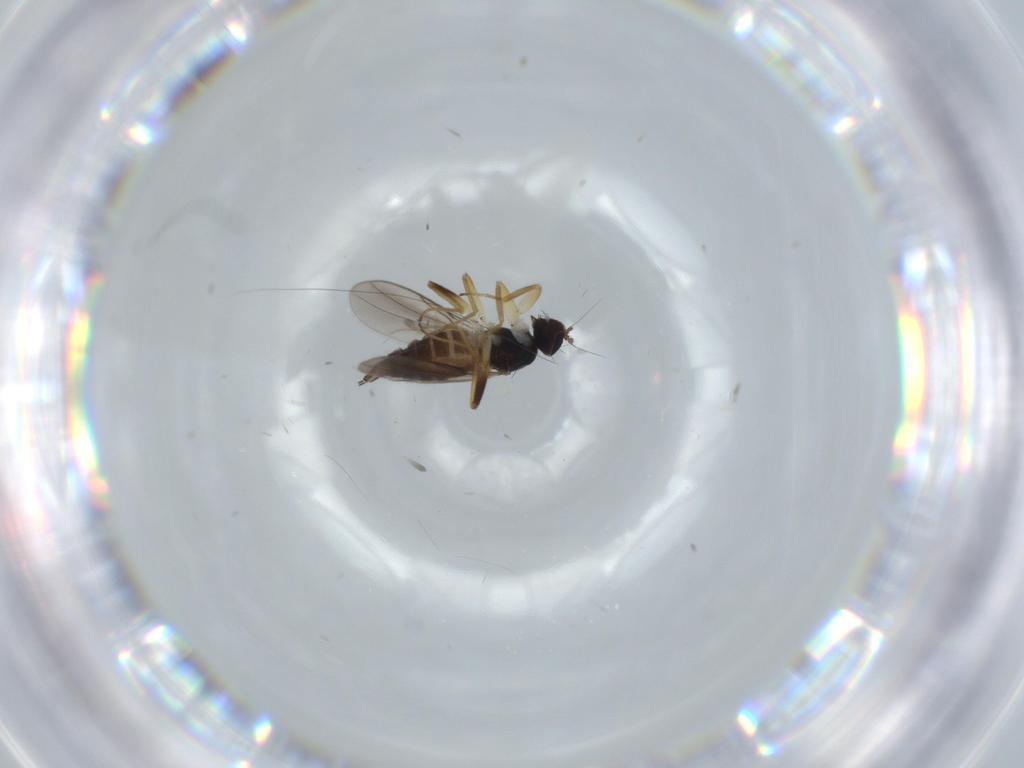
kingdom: Animalia
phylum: Arthropoda
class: Insecta
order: Diptera
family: Hybotidae
